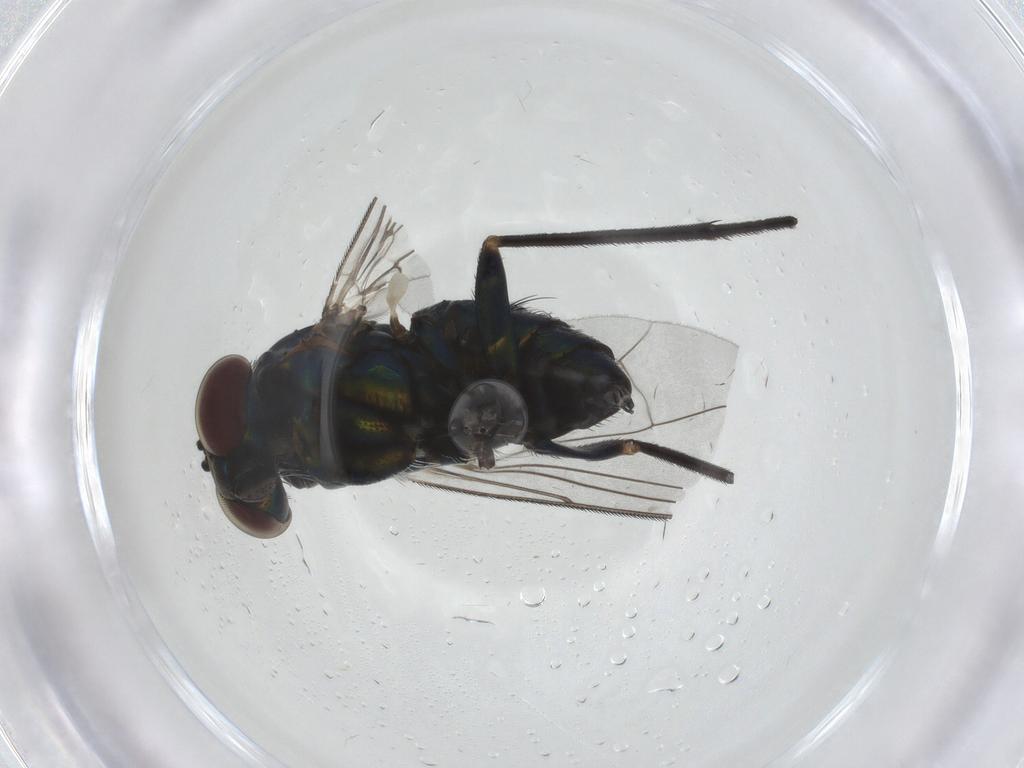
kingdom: Animalia
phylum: Arthropoda
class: Insecta
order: Diptera
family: Dolichopodidae
